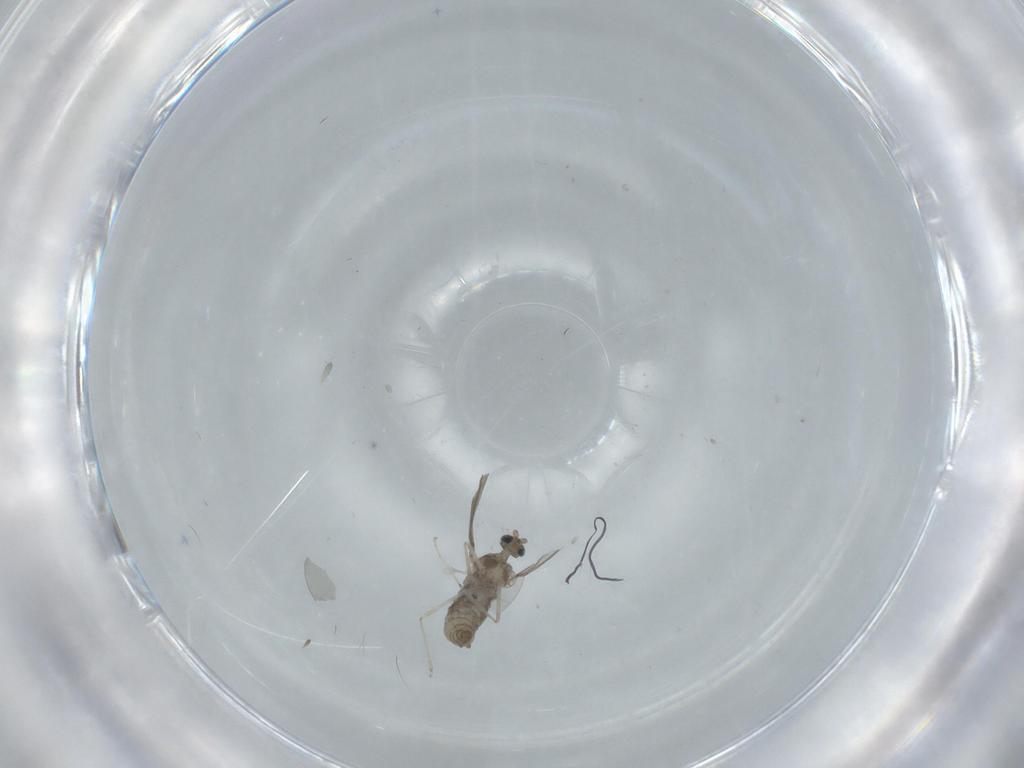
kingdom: Animalia
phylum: Arthropoda
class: Insecta
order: Diptera
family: Cecidomyiidae
